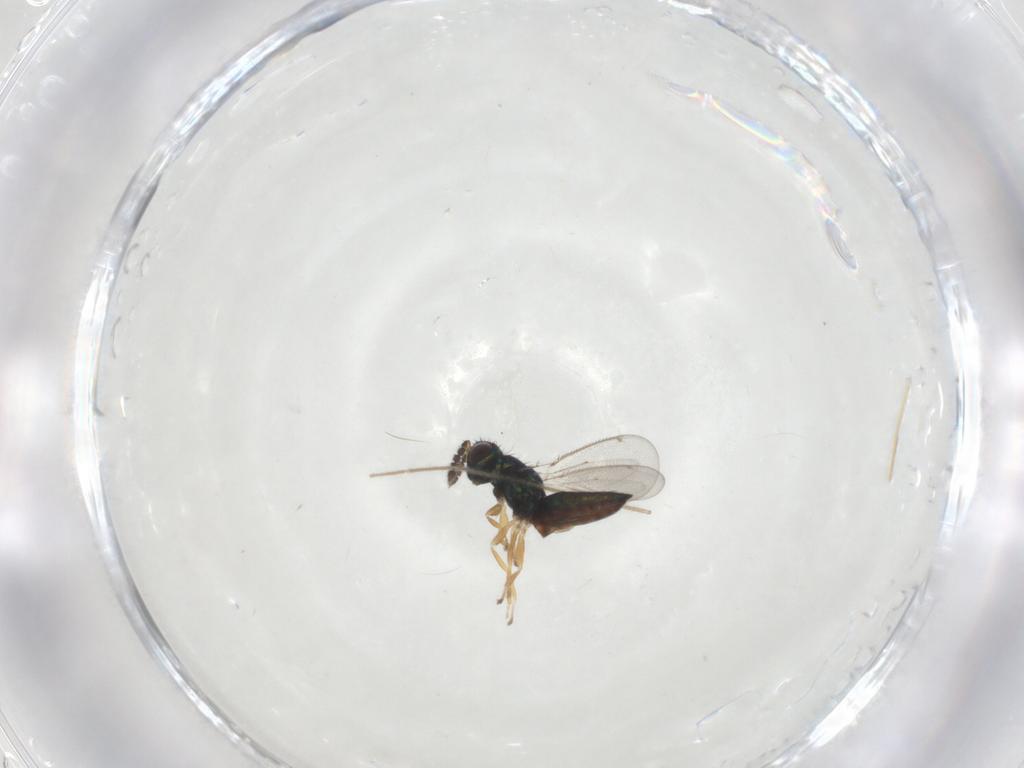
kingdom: Animalia
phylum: Arthropoda
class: Insecta
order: Hymenoptera
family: Eulophidae
